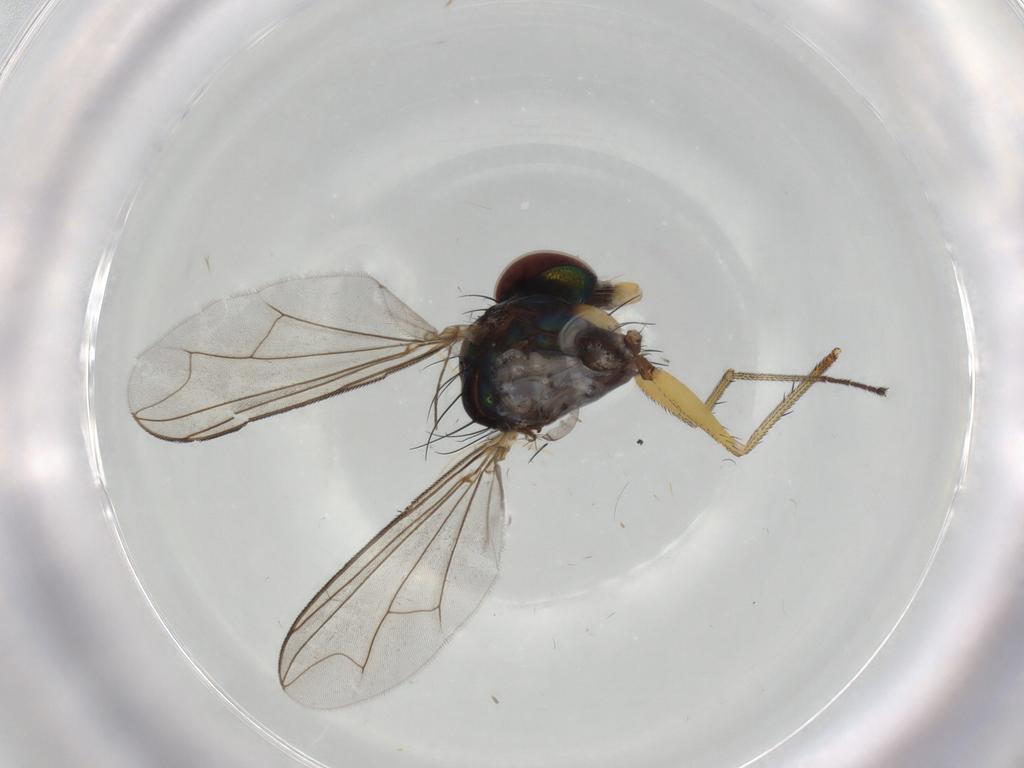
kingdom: Animalia
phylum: Arthropoda
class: Insecta
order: Diptera
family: Dolichopodidae
